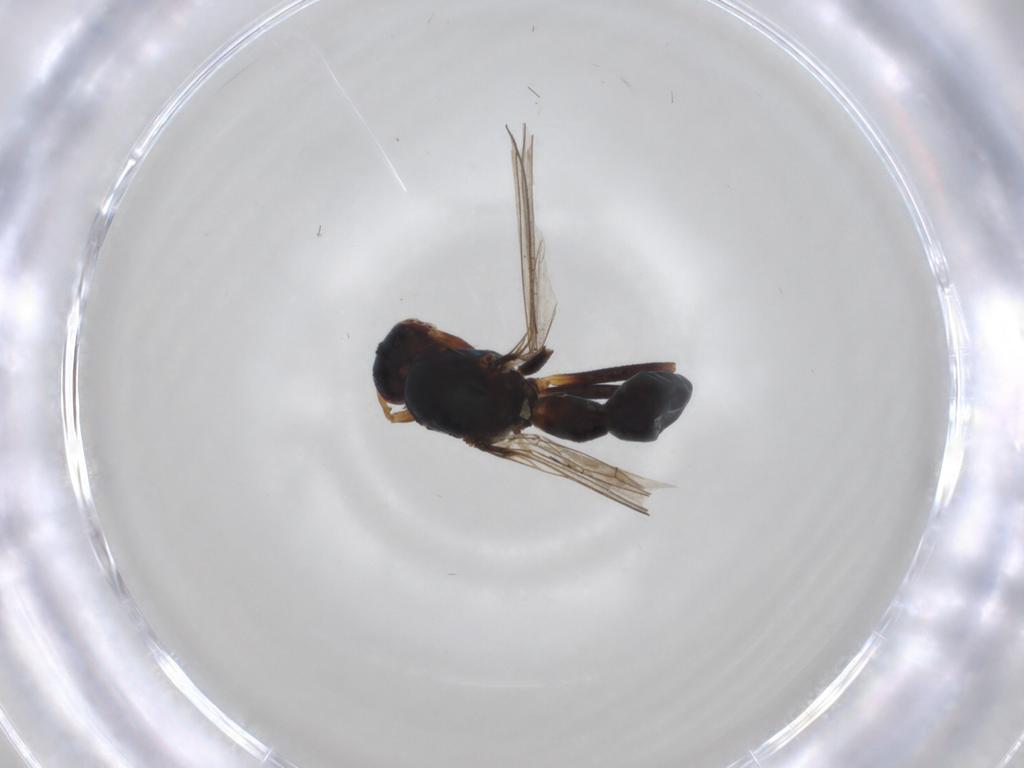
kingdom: Animalia
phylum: Arthropoda
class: Insecta
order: Diptera
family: Sepsidae
